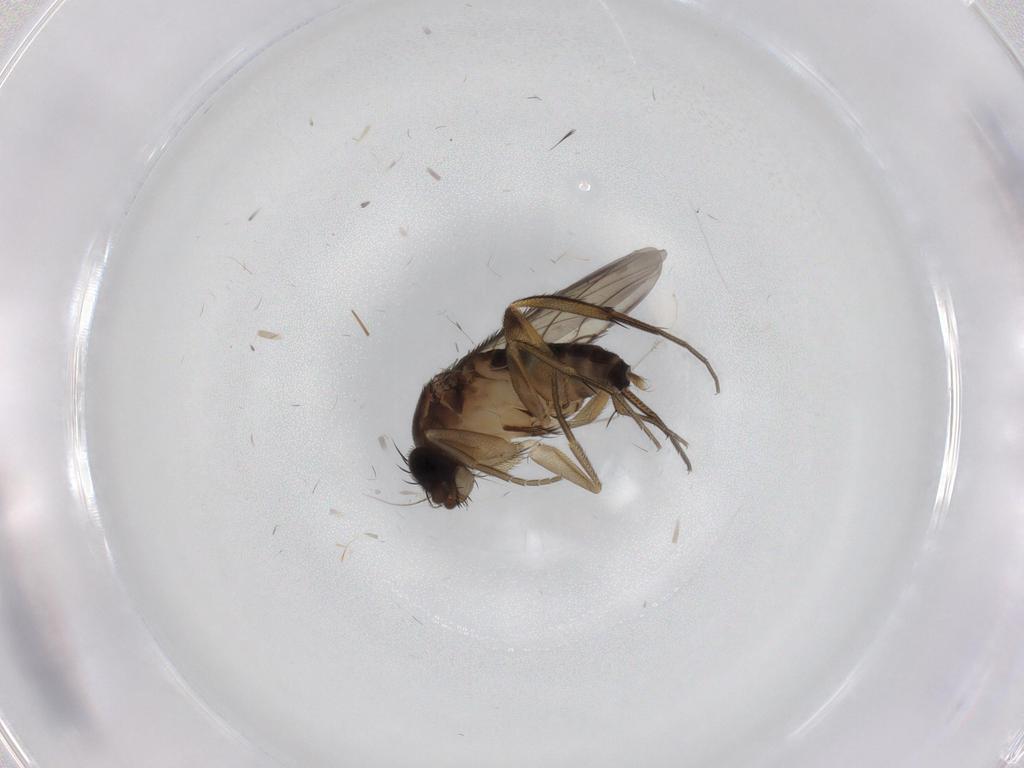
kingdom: Animalia
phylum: Arthropoda
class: Insecta
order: Diptera
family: Phoridae
